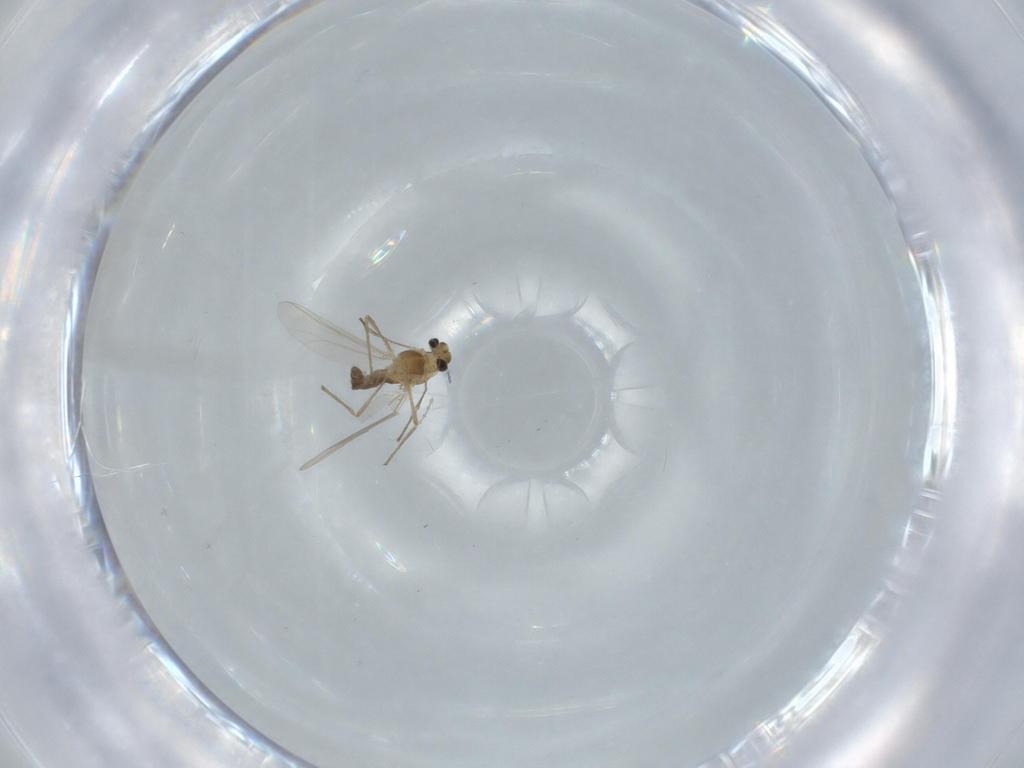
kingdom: Animalia
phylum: Arthropoda
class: Insecta
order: Diptera
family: Chironomidae
